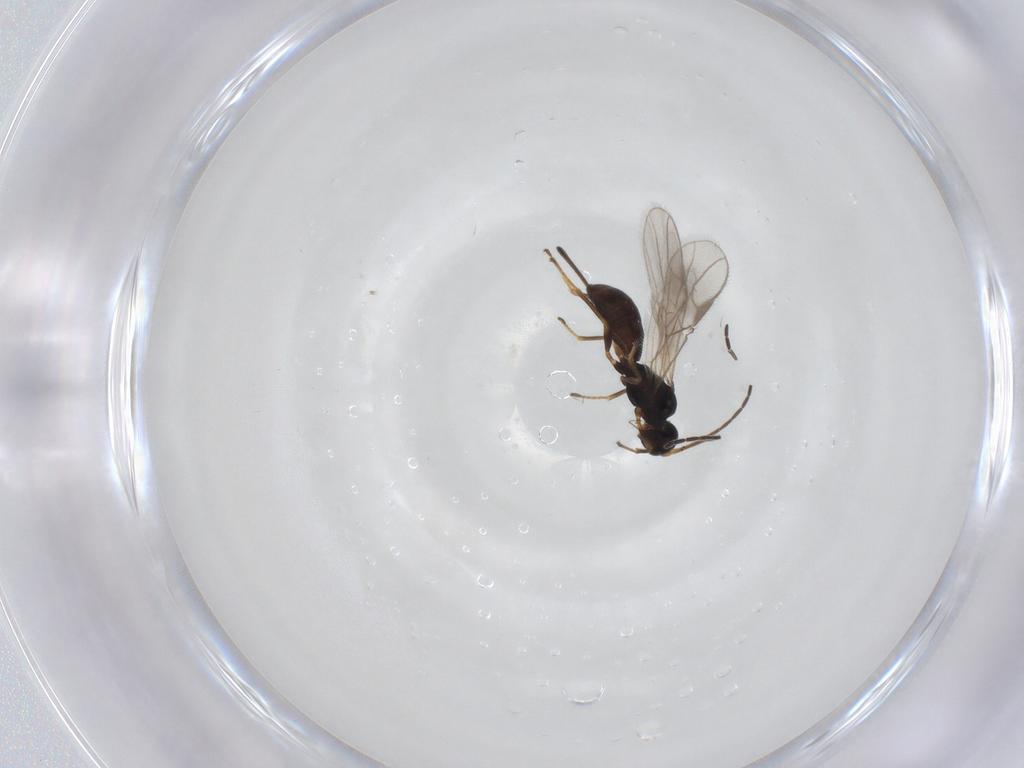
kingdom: Animalia
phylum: Arthropoda
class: Insecta
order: Hymenoptera
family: Braconidae
